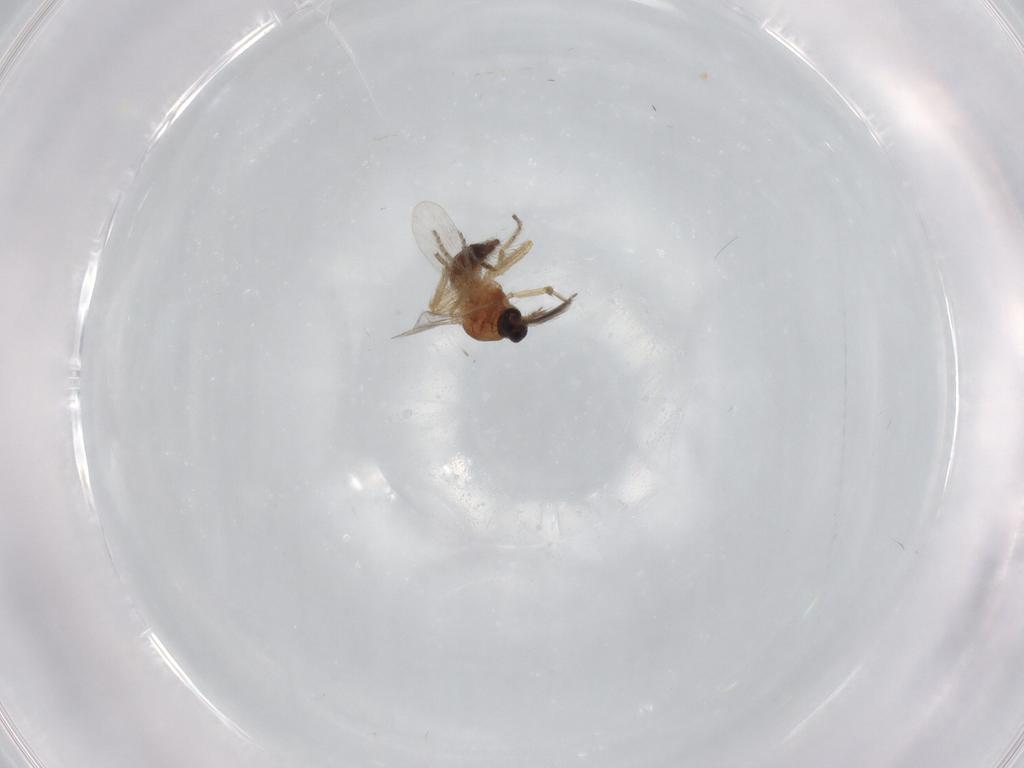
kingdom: Animalia
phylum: Arthropoda
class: Insecta
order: Diptera
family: Ceratopogonidae
